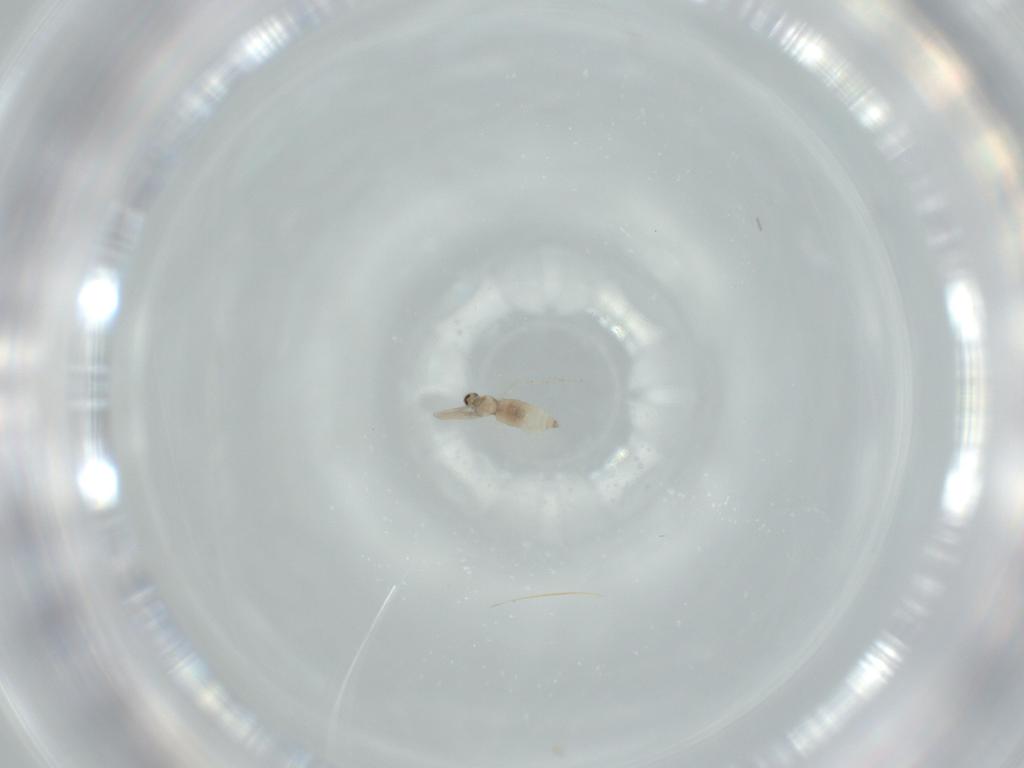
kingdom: Animalia
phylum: Arthropoda
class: Insecta
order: Diptera
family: Cecidomyiidae
